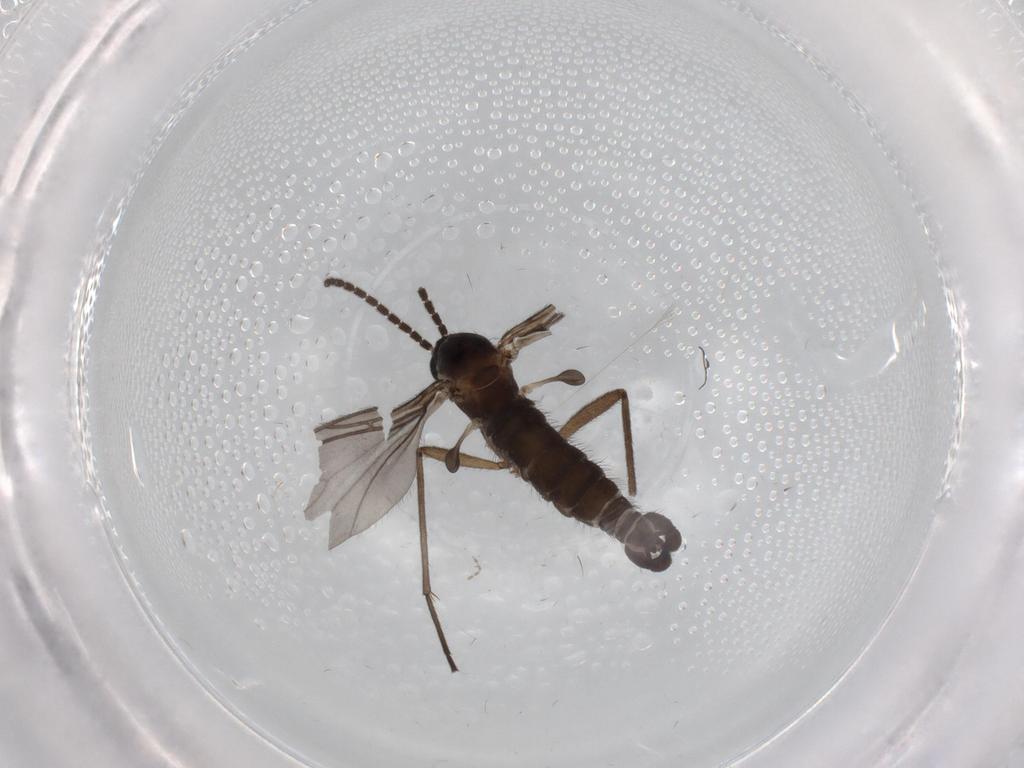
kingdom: Animalia
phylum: Arthropoda
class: Insecta
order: Diptera
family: Sciaridae
